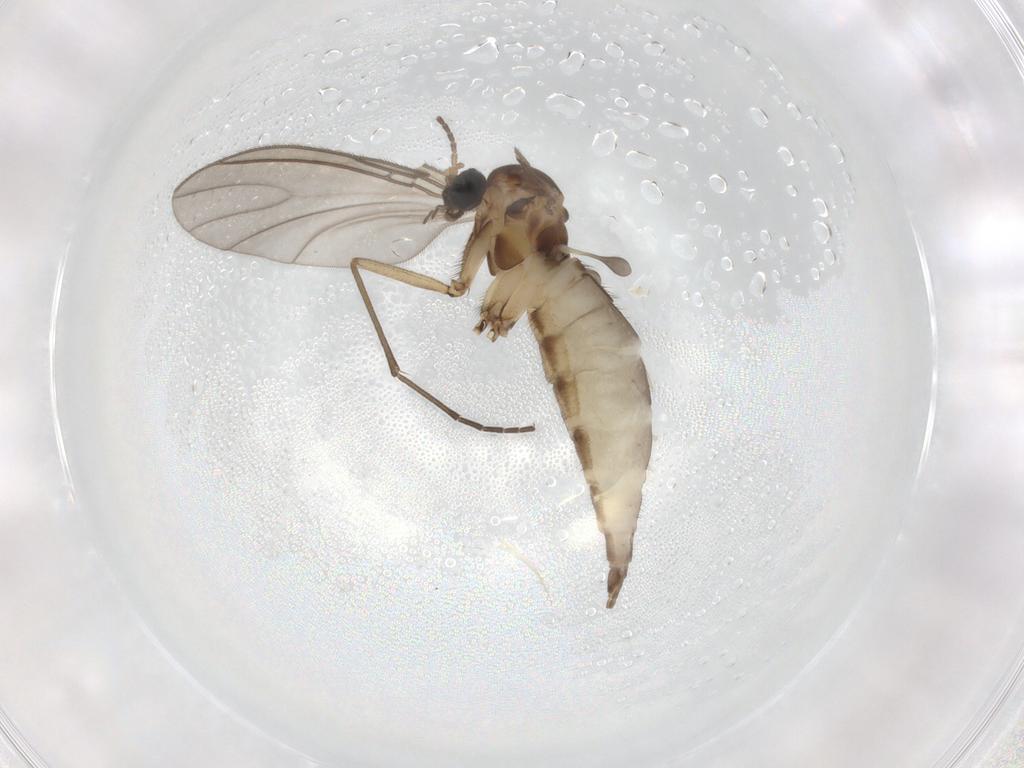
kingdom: Animalia
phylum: Arthropoda
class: Insecta
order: Diptera
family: Sciaridae
